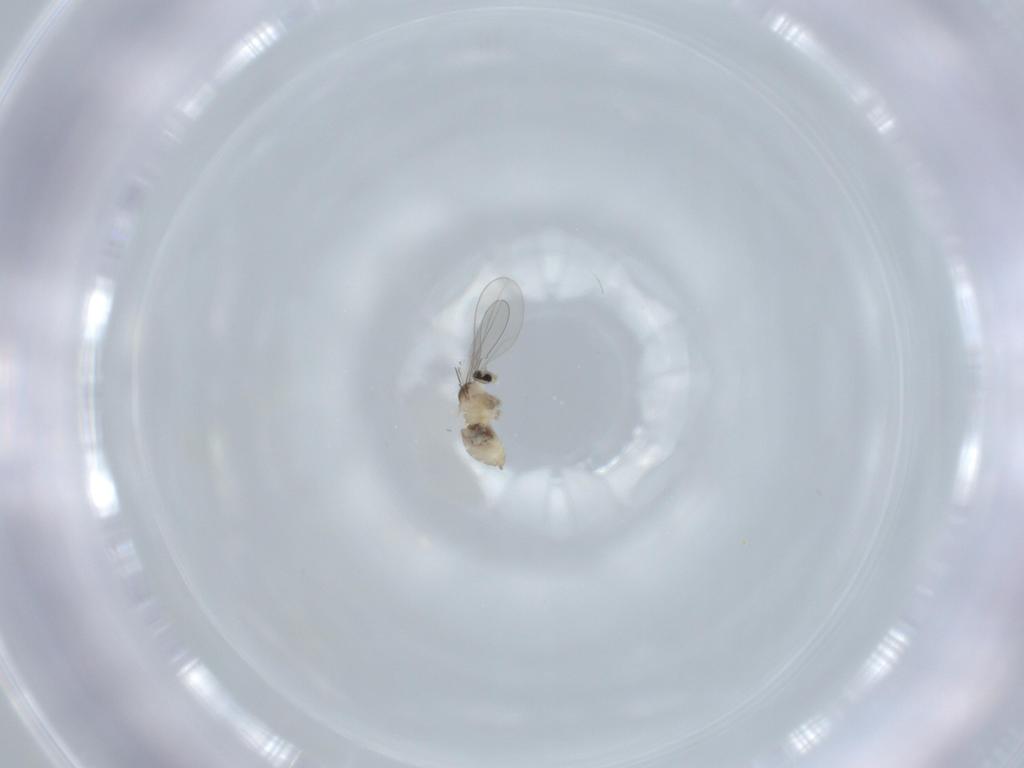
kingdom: Animalia
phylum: Arthropoda
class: Insecta
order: Diptera
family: Cecidomyiidae
